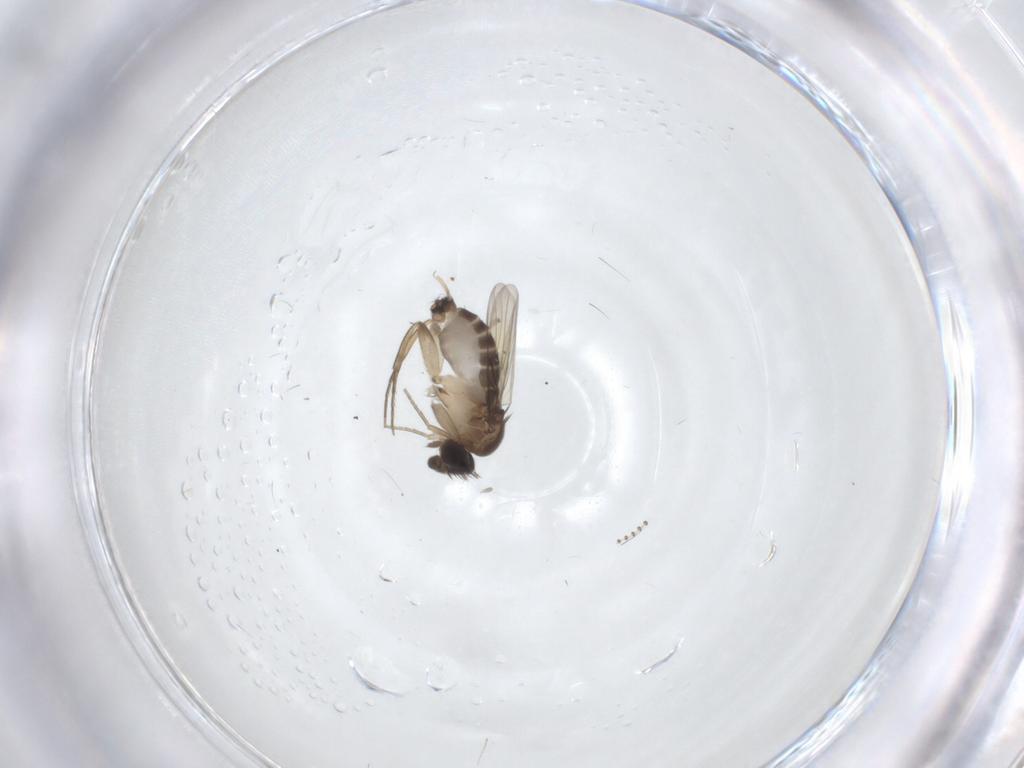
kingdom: Animalia
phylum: Arthropoda
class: Insecta
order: Diptera
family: Phoridae
